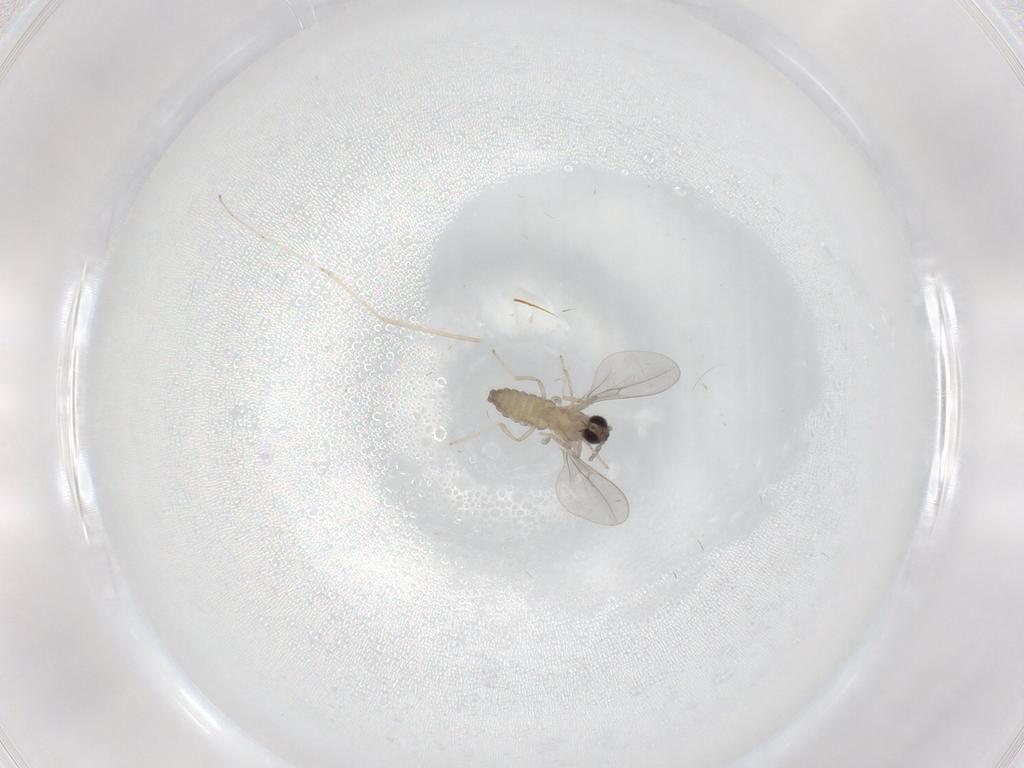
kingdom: Animalia
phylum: Arthropoda
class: Insecta
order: Diptera
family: Cecidomyiidae
